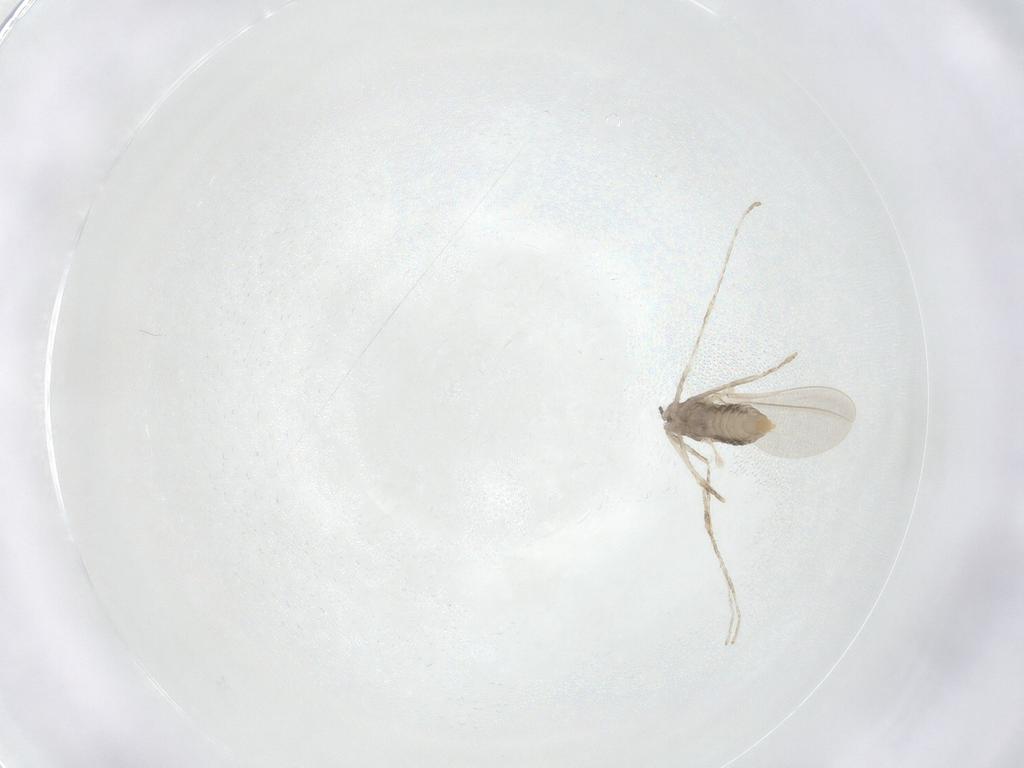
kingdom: Animalia
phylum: Arthropoda
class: Insecta
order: Diptera
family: Cecidomyiidae
